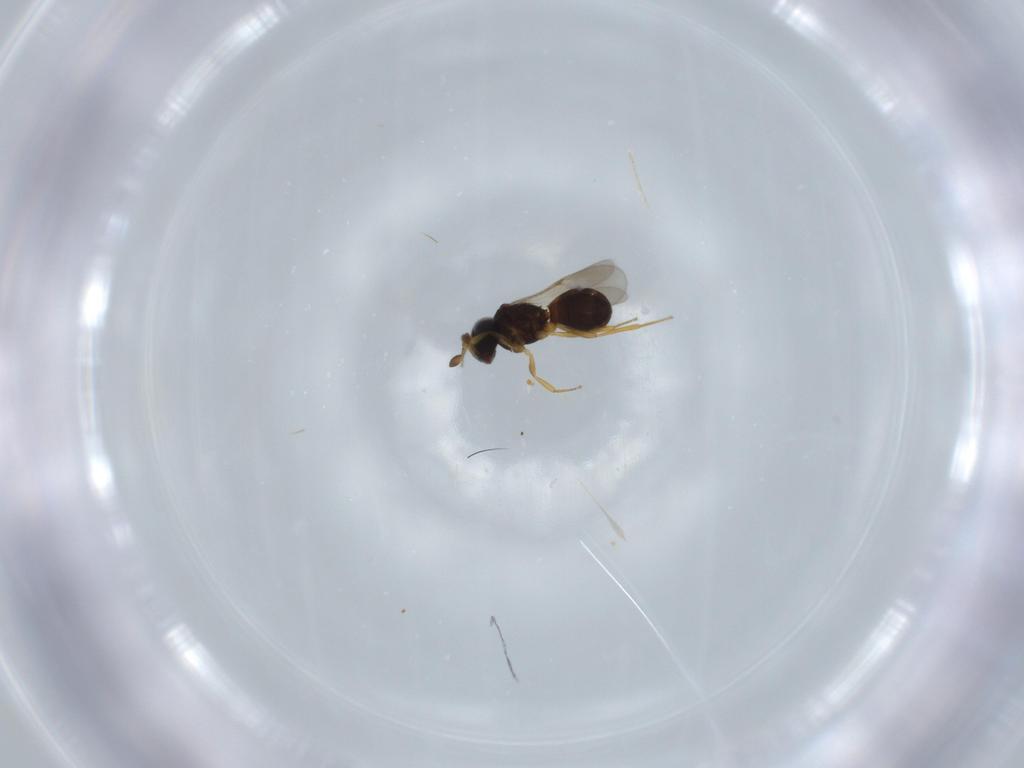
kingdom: Animalia
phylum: Arthropoda
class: Insecta
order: Hymenoptera
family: Scelionidae
